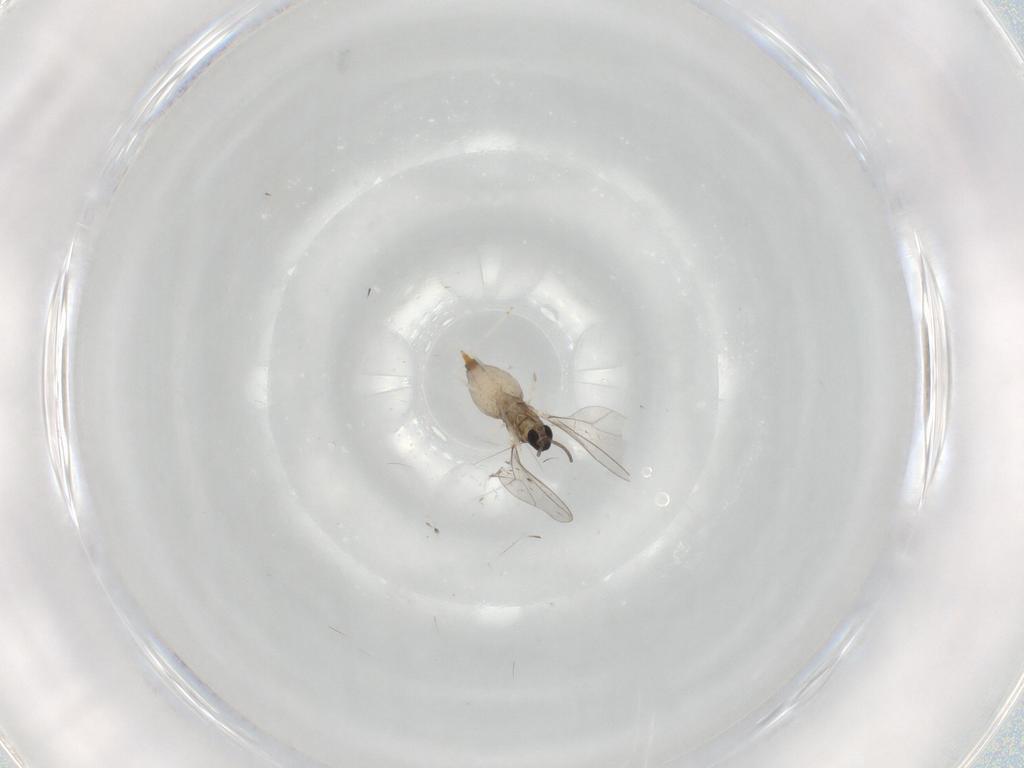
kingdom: Animalia
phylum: Arthropoda
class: Insecta
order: Diptera
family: Cecidomyiidae
